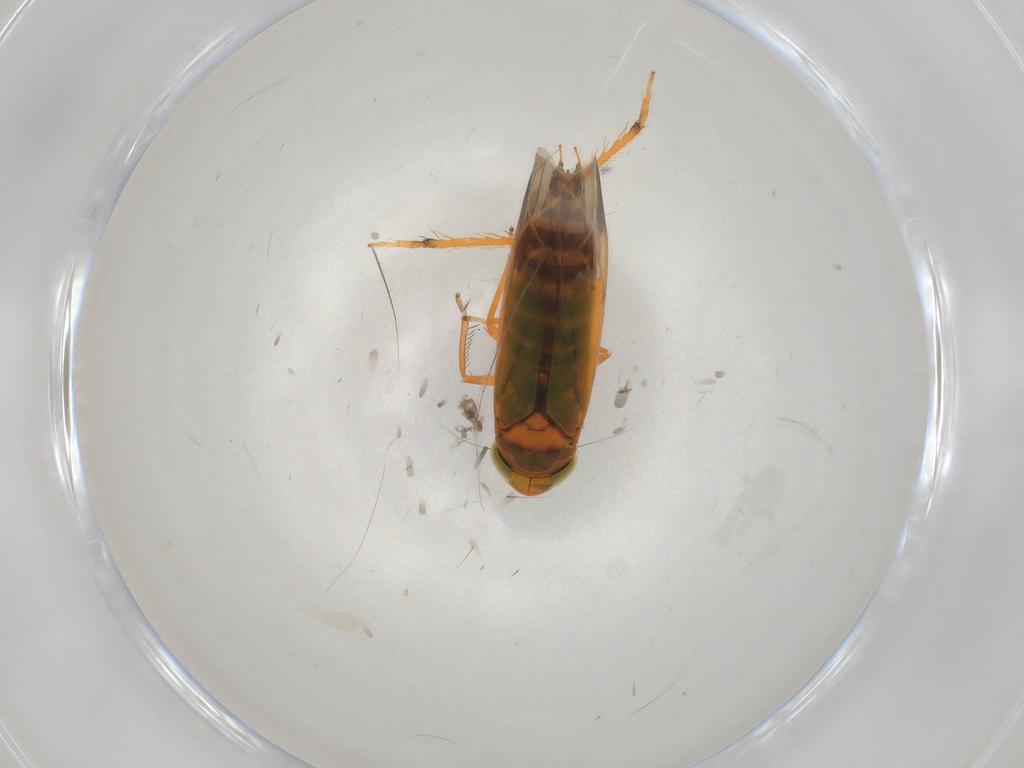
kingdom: Animalia
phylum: Arthropoda
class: Insecta
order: Hemiptera
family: Cicadellidae
